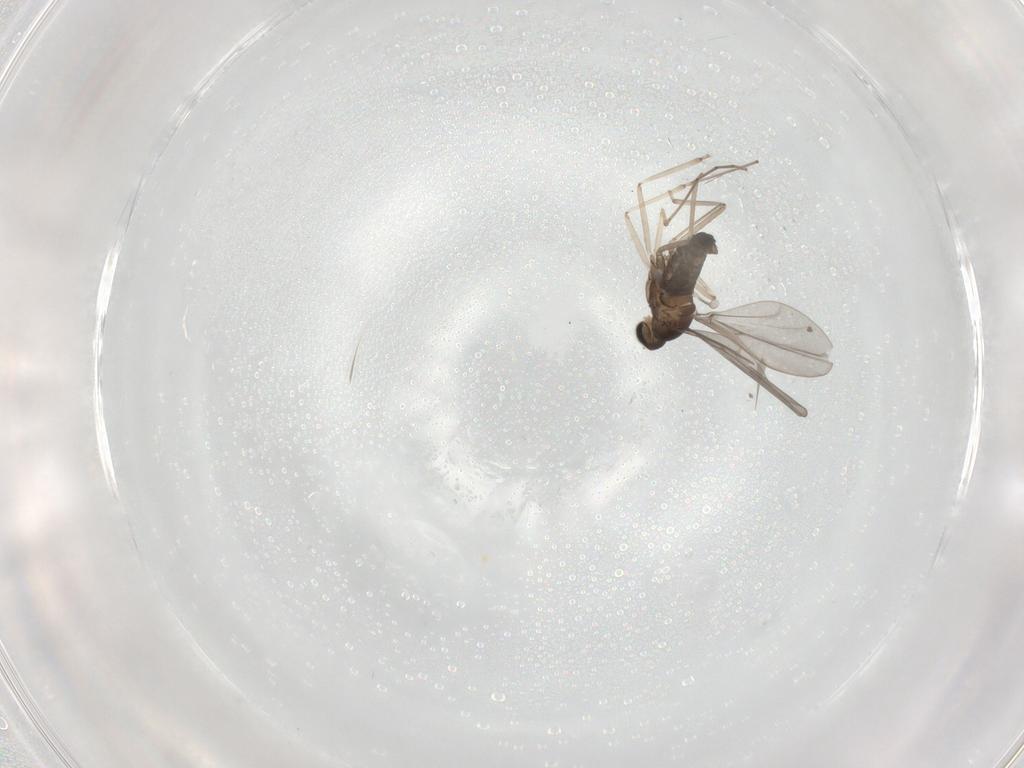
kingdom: Animalia
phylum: Arthropoda
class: Insecta
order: Diptera
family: Cecidomyiidae
